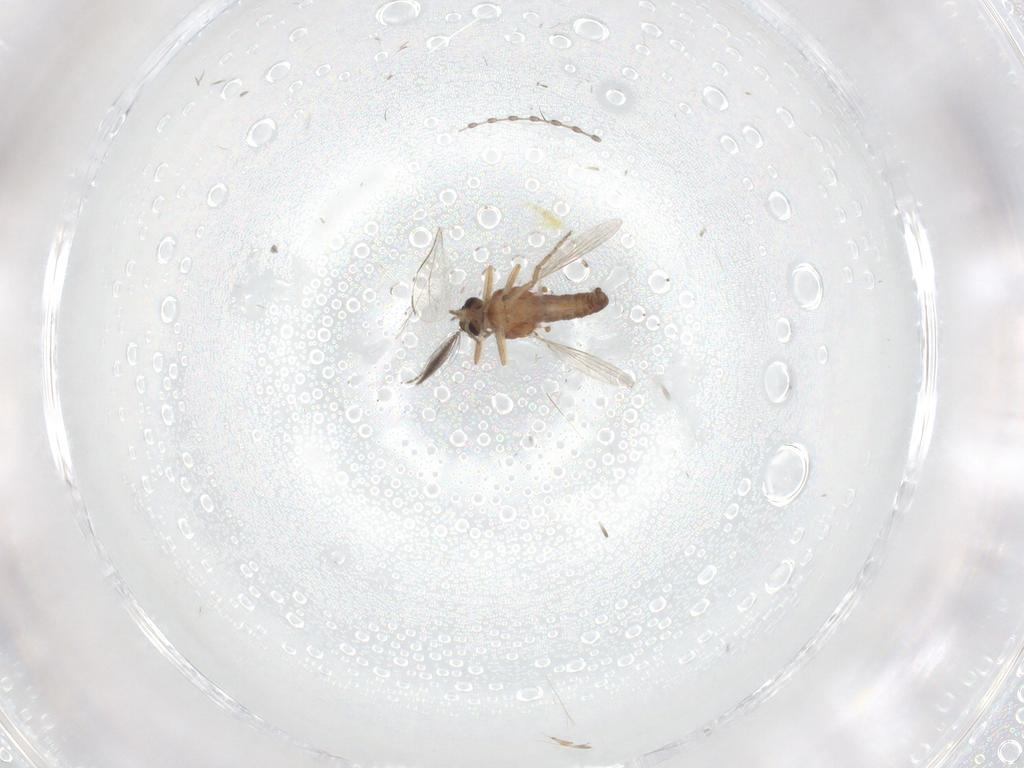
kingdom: Animalia
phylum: Arthropoda
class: Insecta
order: Diptera
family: Ceratopogonidae
